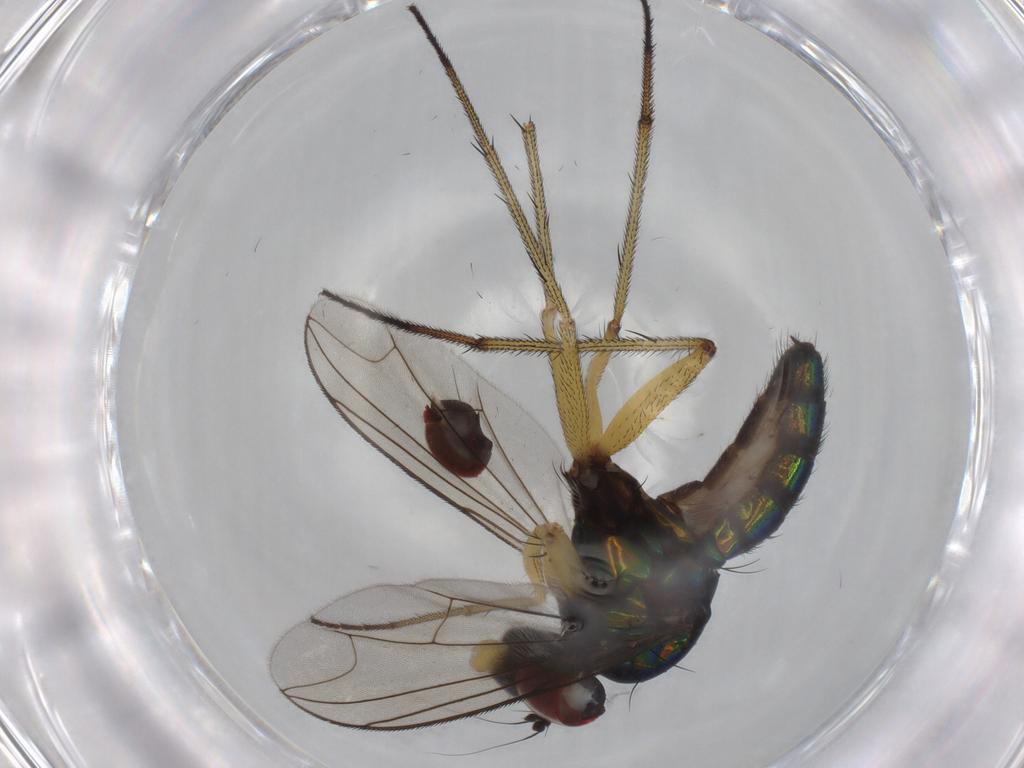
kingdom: Animalia
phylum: Arthropoda
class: Insecta
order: Diptera
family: Dolichopodidae
